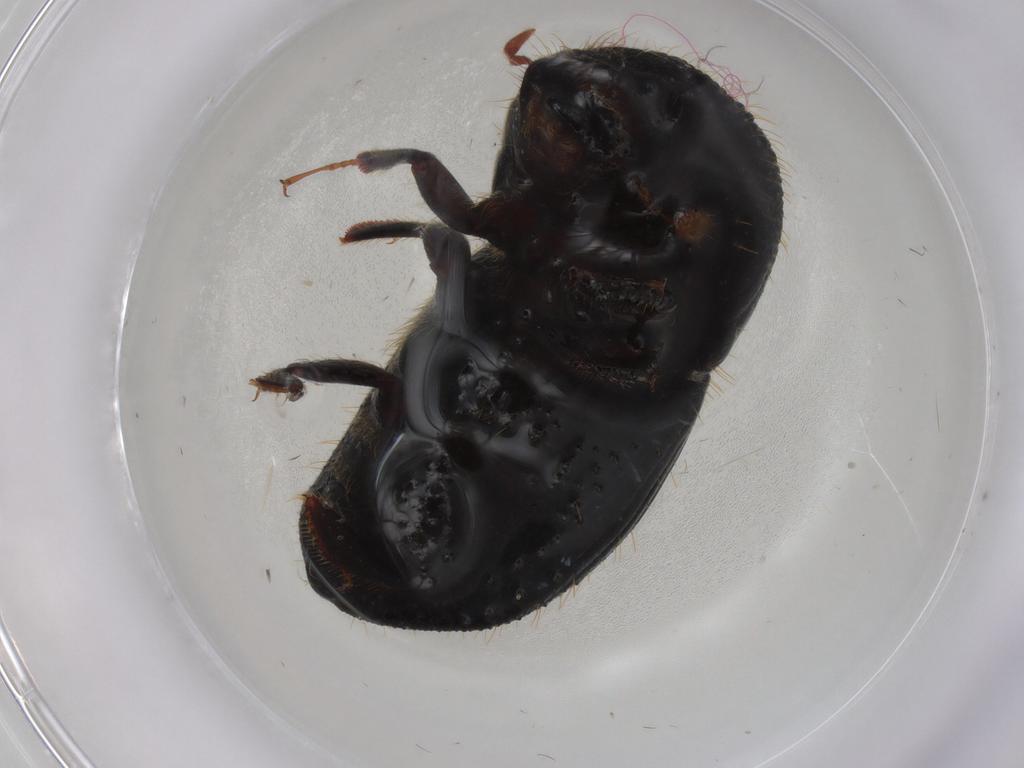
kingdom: Animalia
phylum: Arthropoda
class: Insecta
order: Coleoptera
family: Curculionidae
